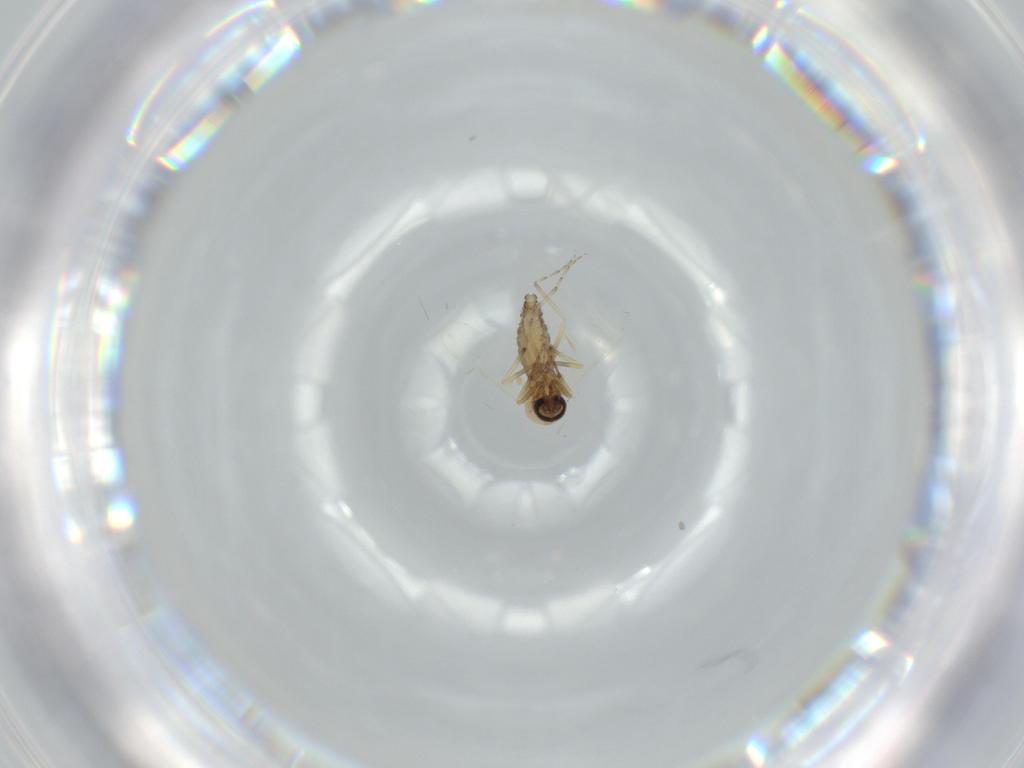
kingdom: Animalia
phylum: Arthropoda
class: Insecta
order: Diptera
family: Ceratopogonidae
